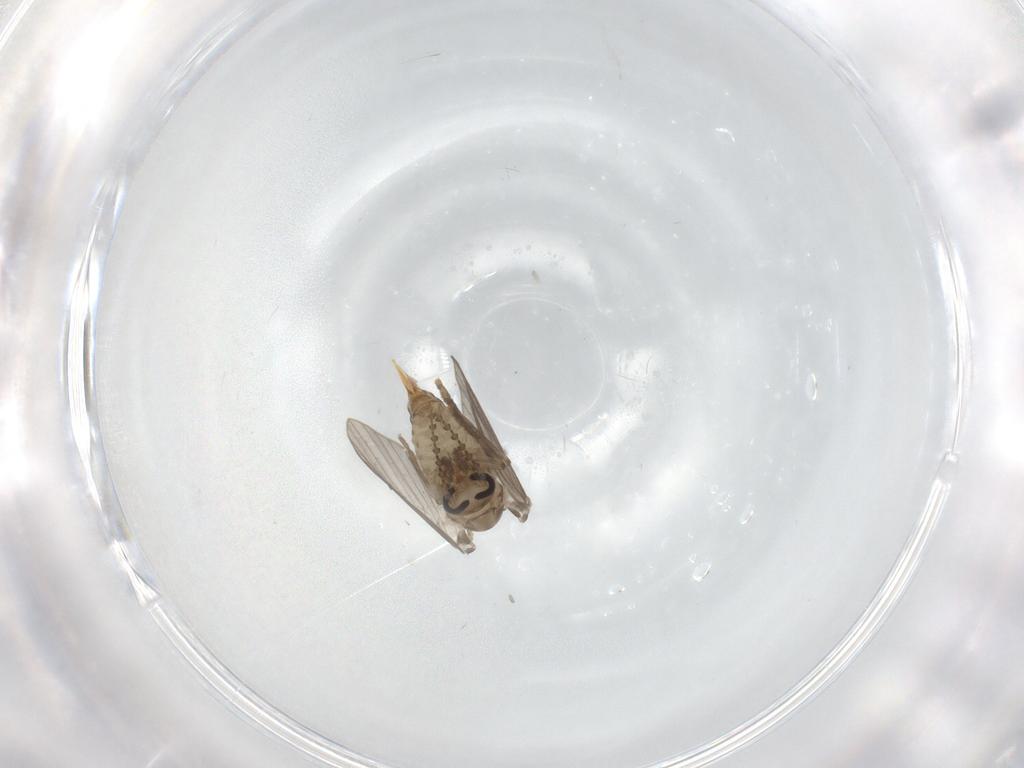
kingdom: Animalia
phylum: Arthropoda
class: Insecta
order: Diptera
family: Psychodidae
